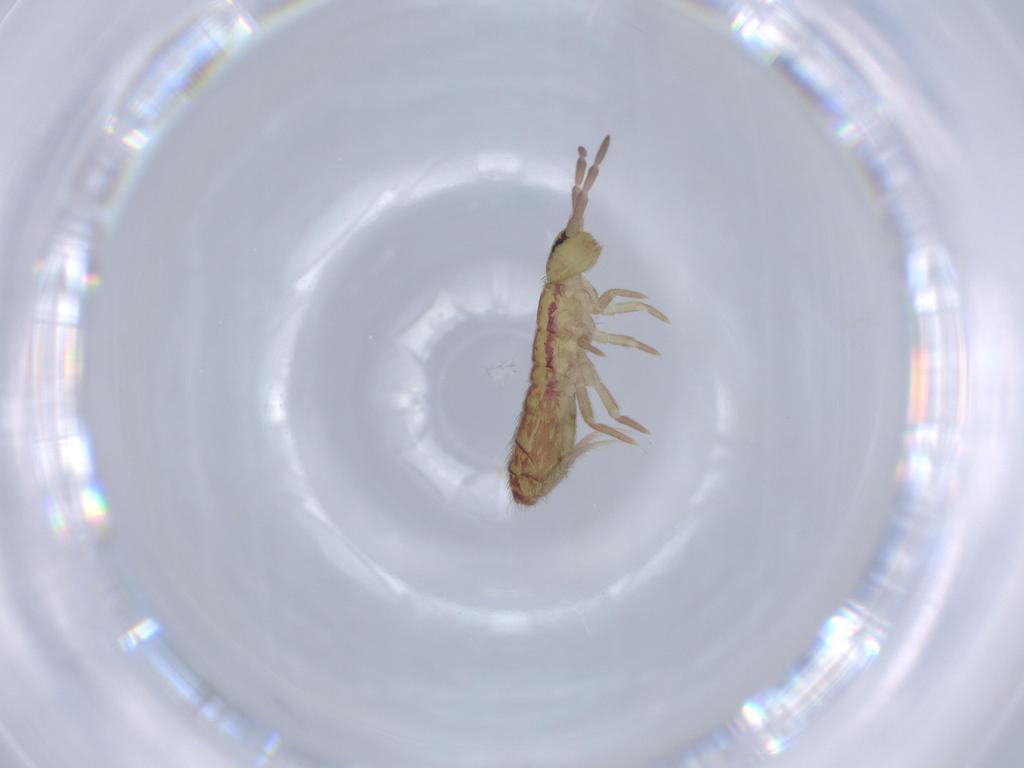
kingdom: Animalia
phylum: Arthropoda
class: Collembola
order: Entomobryomorpha
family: Isotomidae
